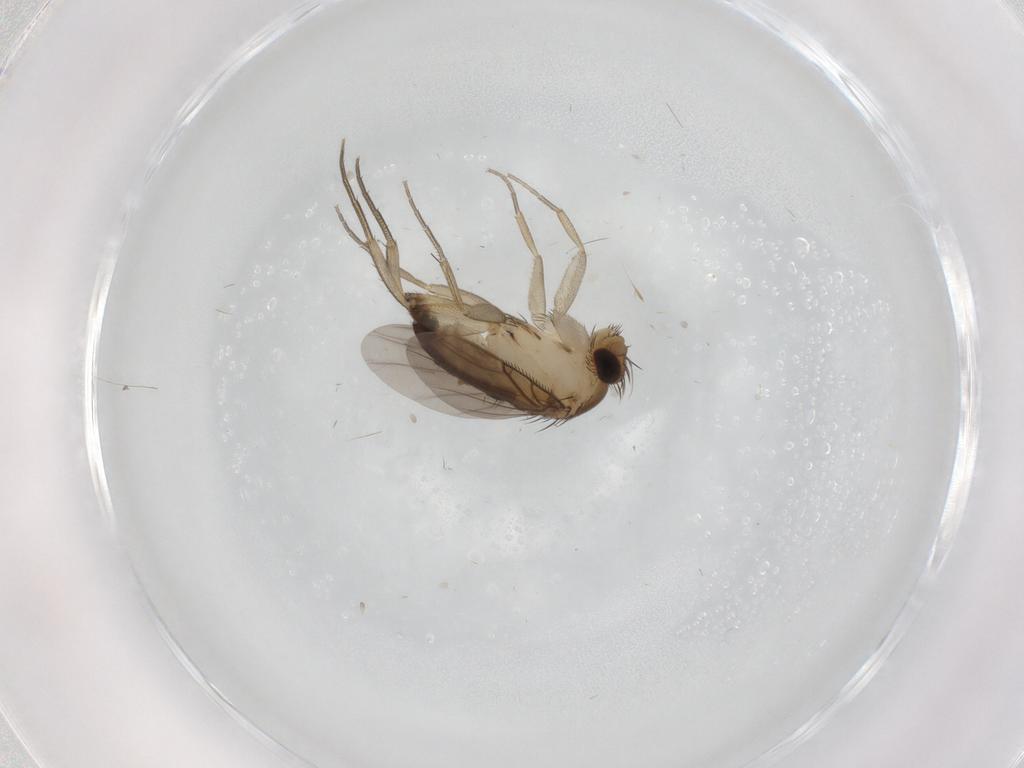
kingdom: Animalia
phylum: Arthropoda
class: Insecta
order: Diptera
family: Phoridae
